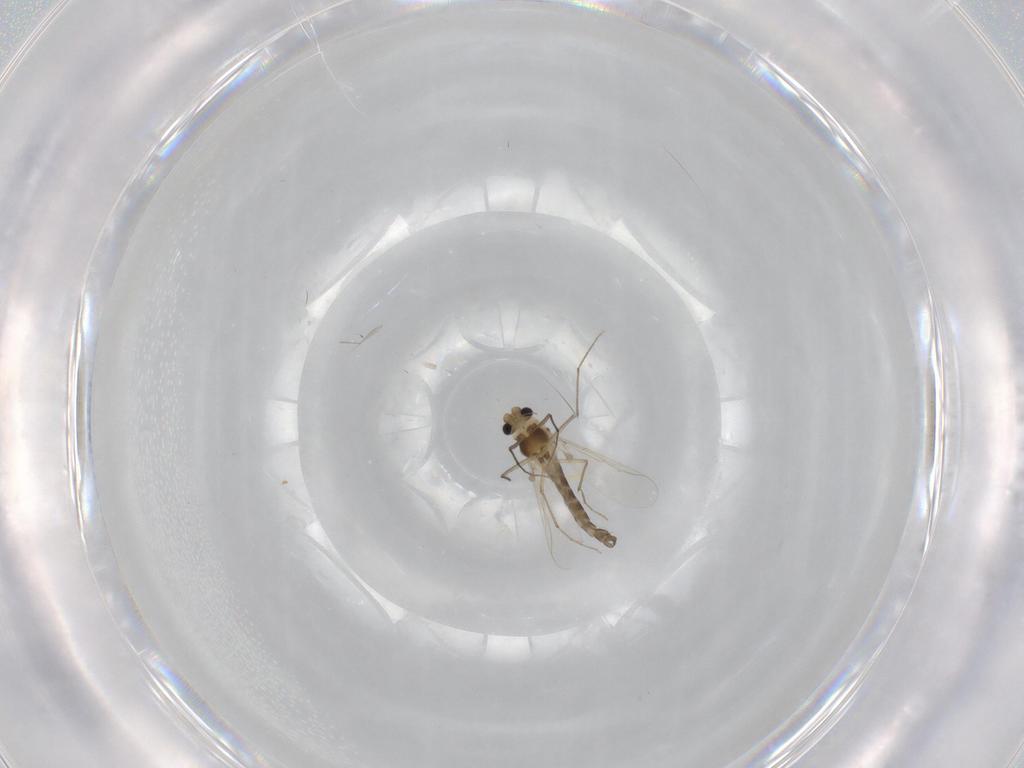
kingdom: Animalia
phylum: Arthropoda
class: Insecta
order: Diptera
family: Chironomidae
